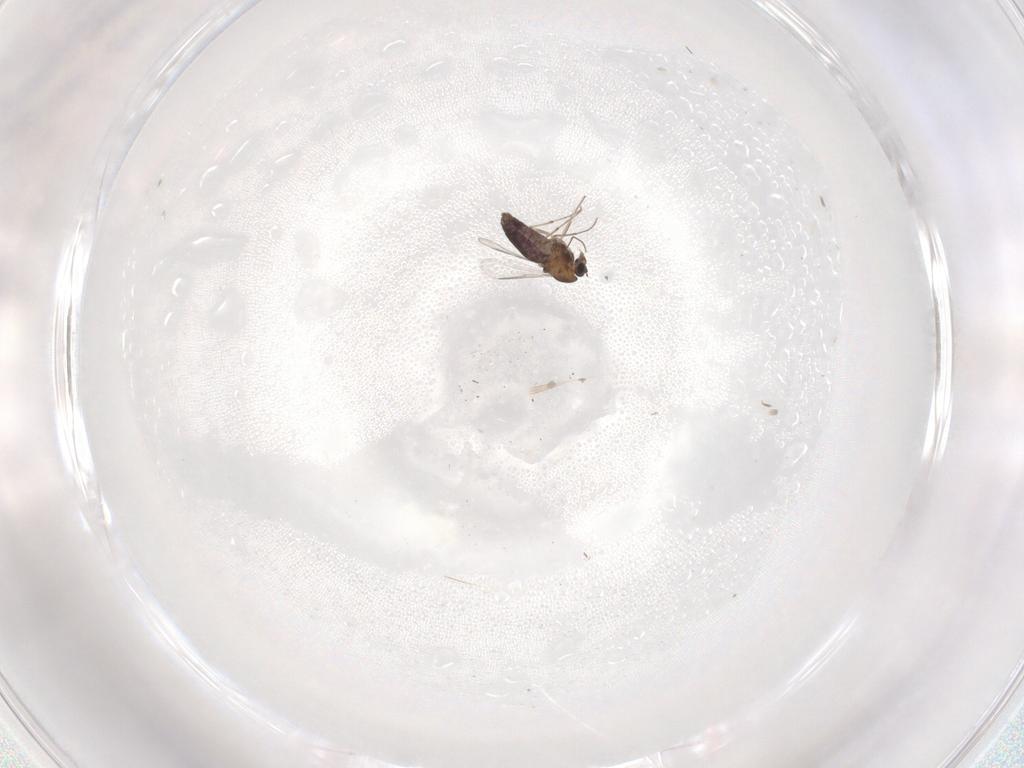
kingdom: Animalia
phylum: Arthropoda
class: Insecta
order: Diptera
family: Chironomidae
